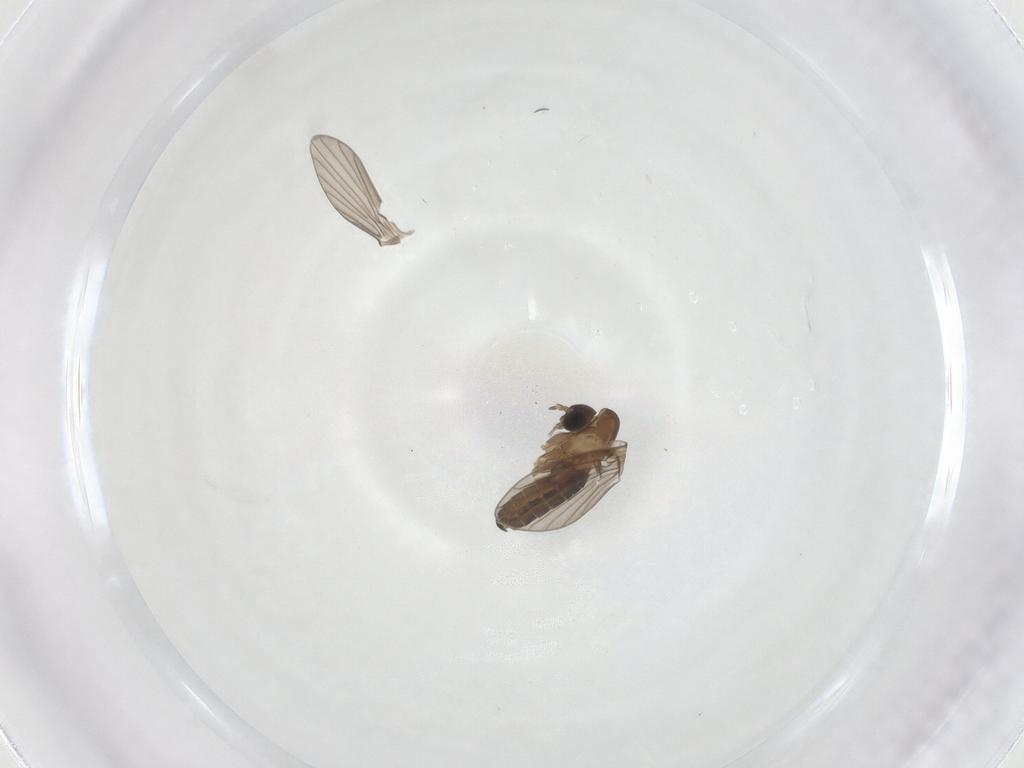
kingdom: Animalia
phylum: Arthropoda
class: Insecta
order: Diptera
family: Psychodidae
